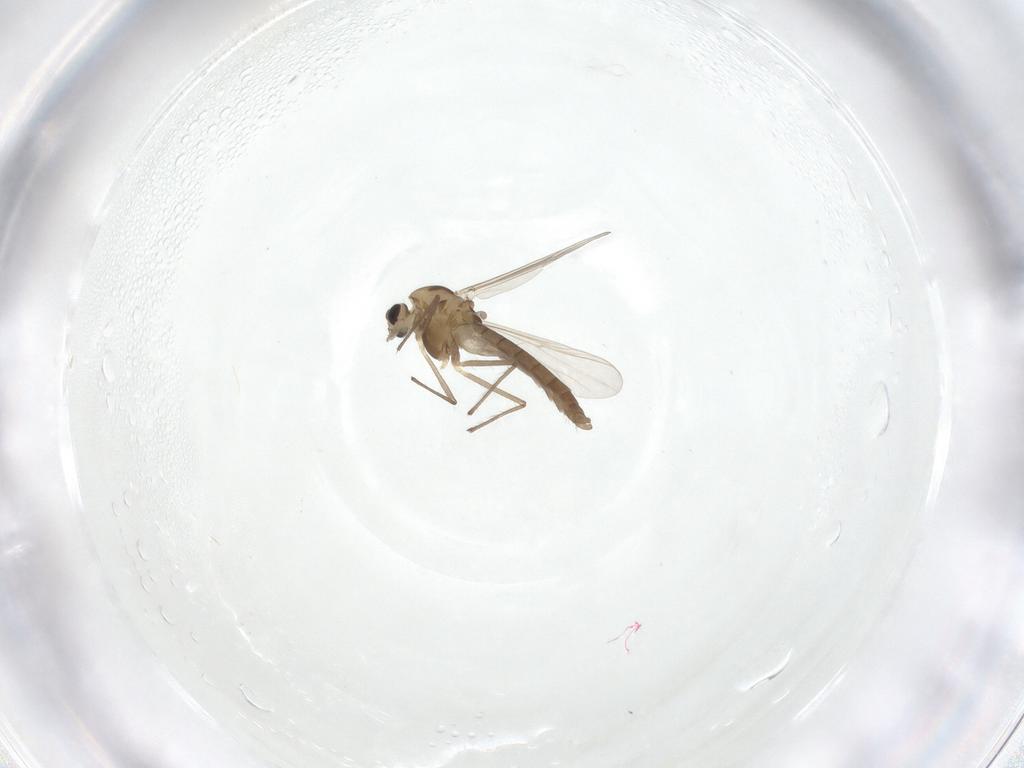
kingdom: Animalia
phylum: Arthropoda
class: Insecta
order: Diptera
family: Chironomidae
